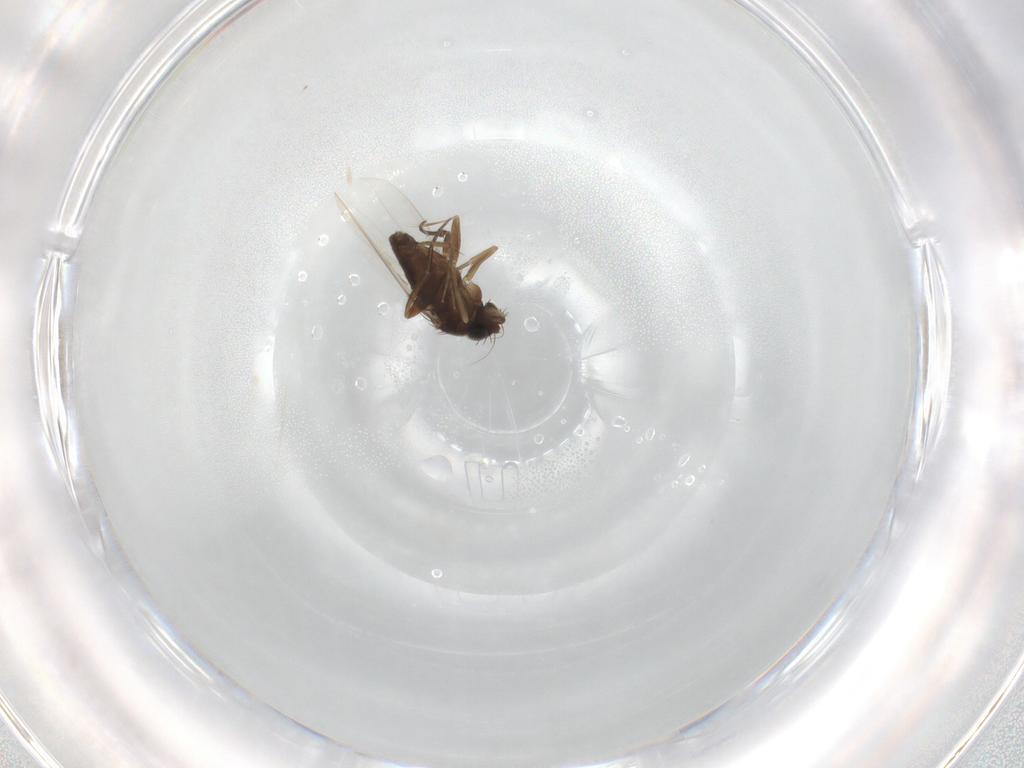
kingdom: Animalia
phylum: Arthropoda
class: Insecta
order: Diptera
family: Phoridae
